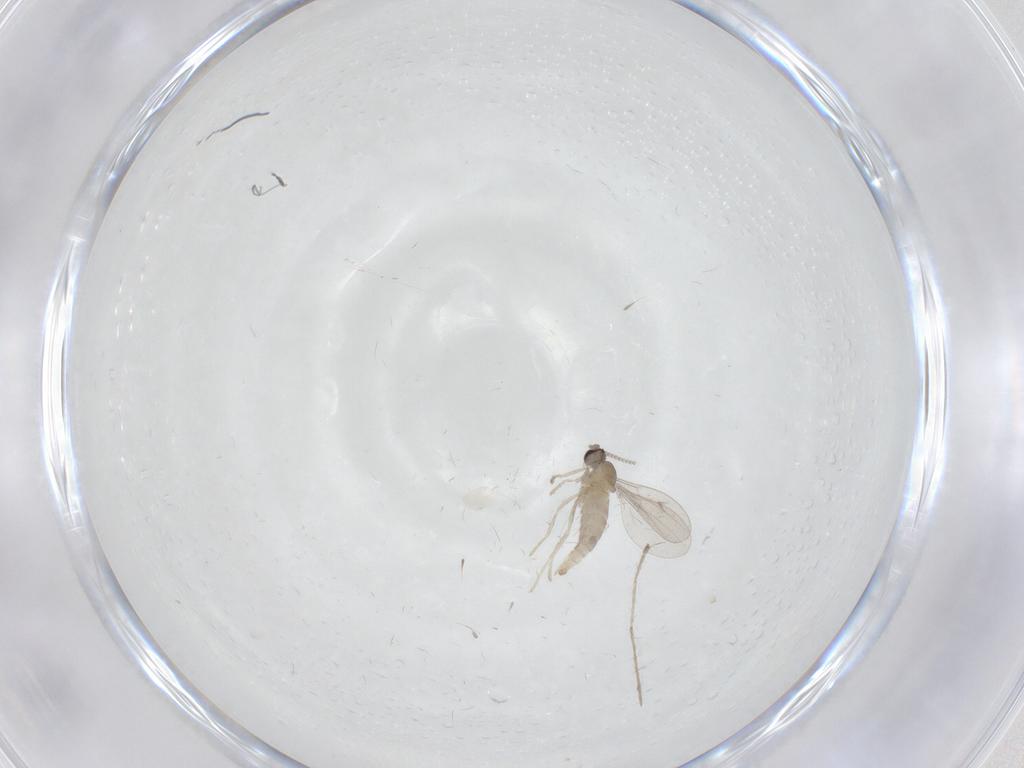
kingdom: Animalia
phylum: Arthropoda
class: Insecta
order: Diptera
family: Cecidomyiidae
